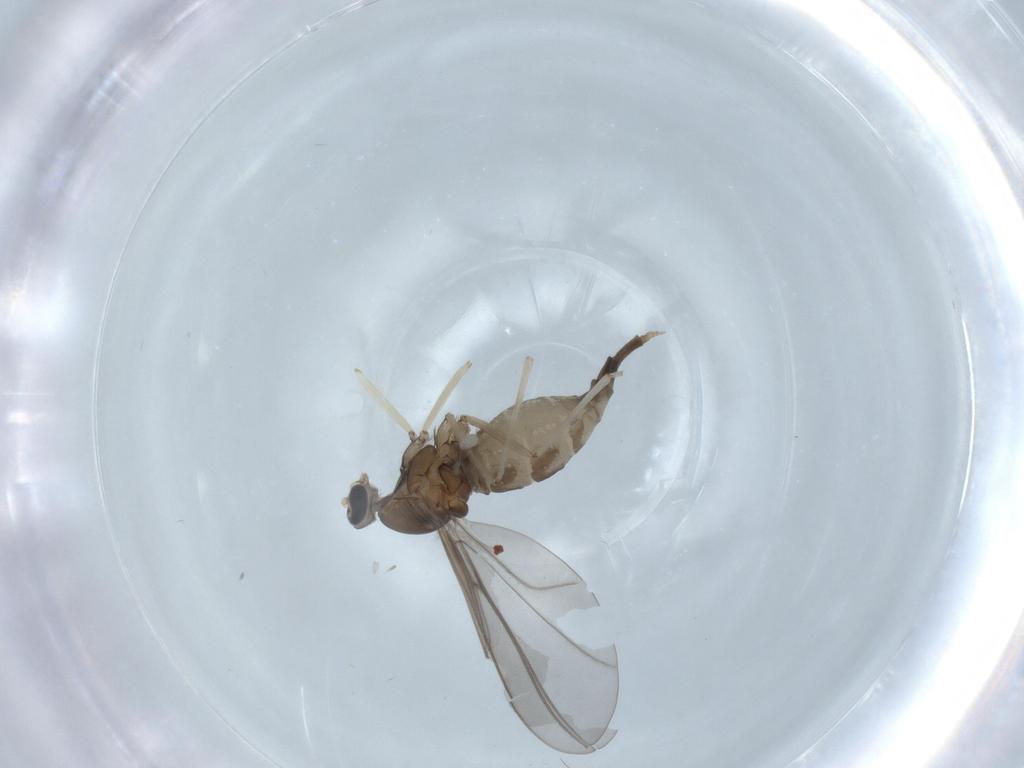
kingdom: Animalia
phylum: Arthropoda
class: Insecta
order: Diptera
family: Cecidomyiidae
